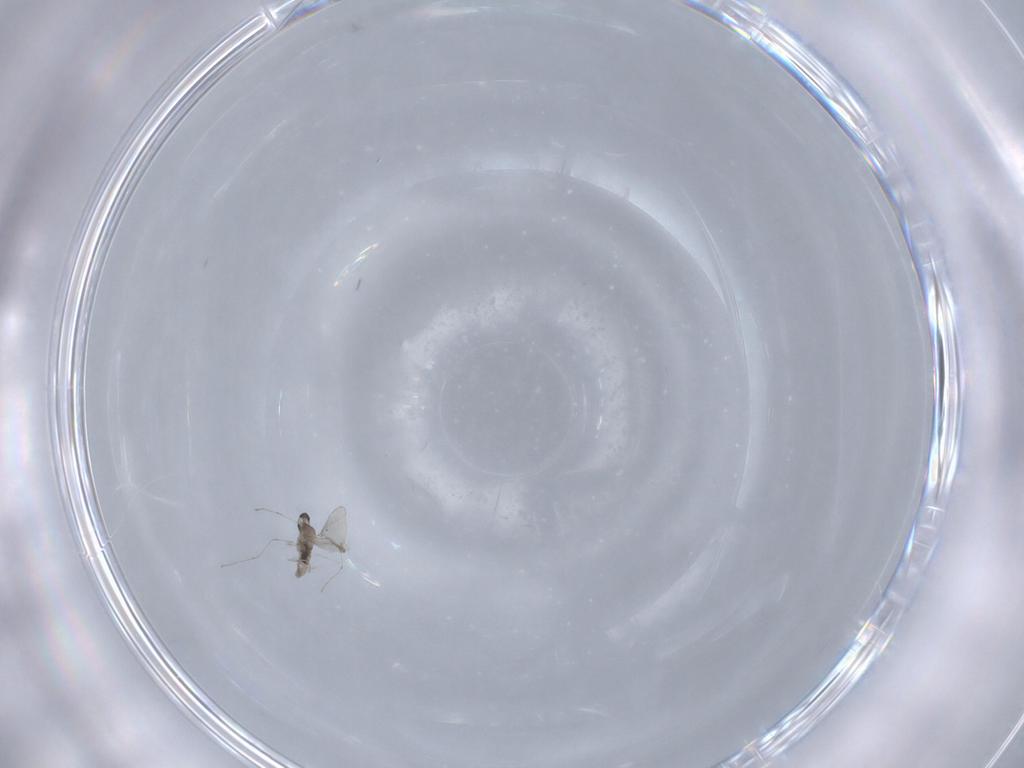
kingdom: Animalia
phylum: Arthropoda
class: Insecta
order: Diptera
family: Cecidomyiidae
